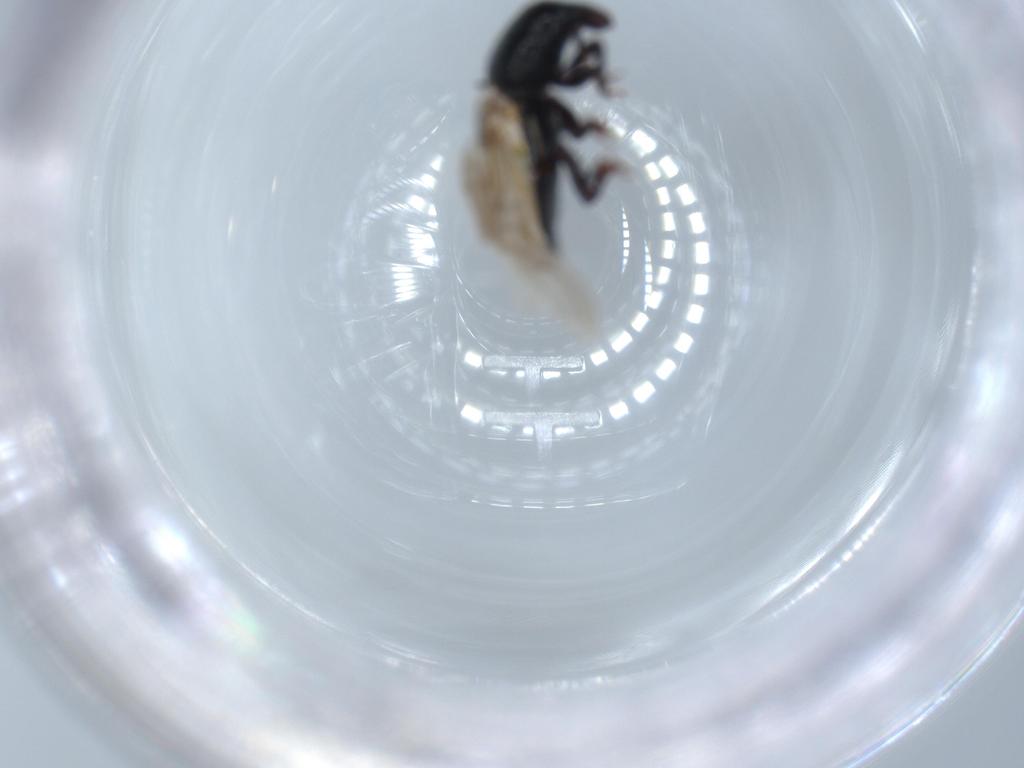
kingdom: Animalia
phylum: Arthropoda
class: Insecta
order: Coleoptera
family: Curculionidae
